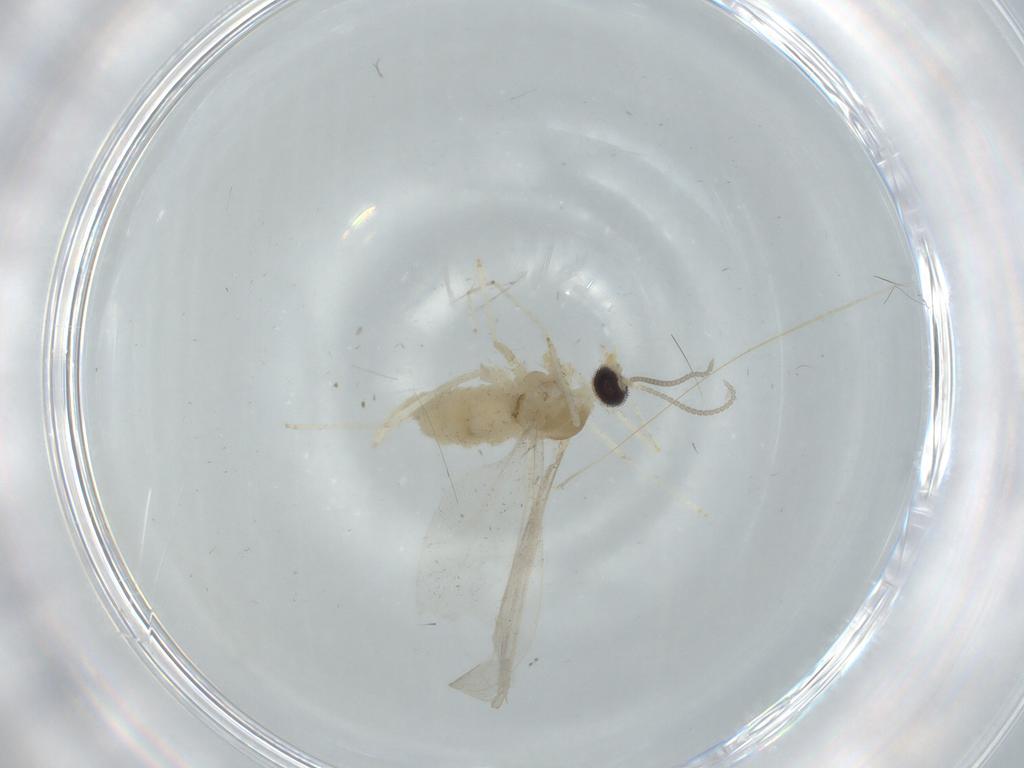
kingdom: Animalia
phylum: Arthropoda
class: Insecta
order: Diptera
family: Cecidomyiidae
